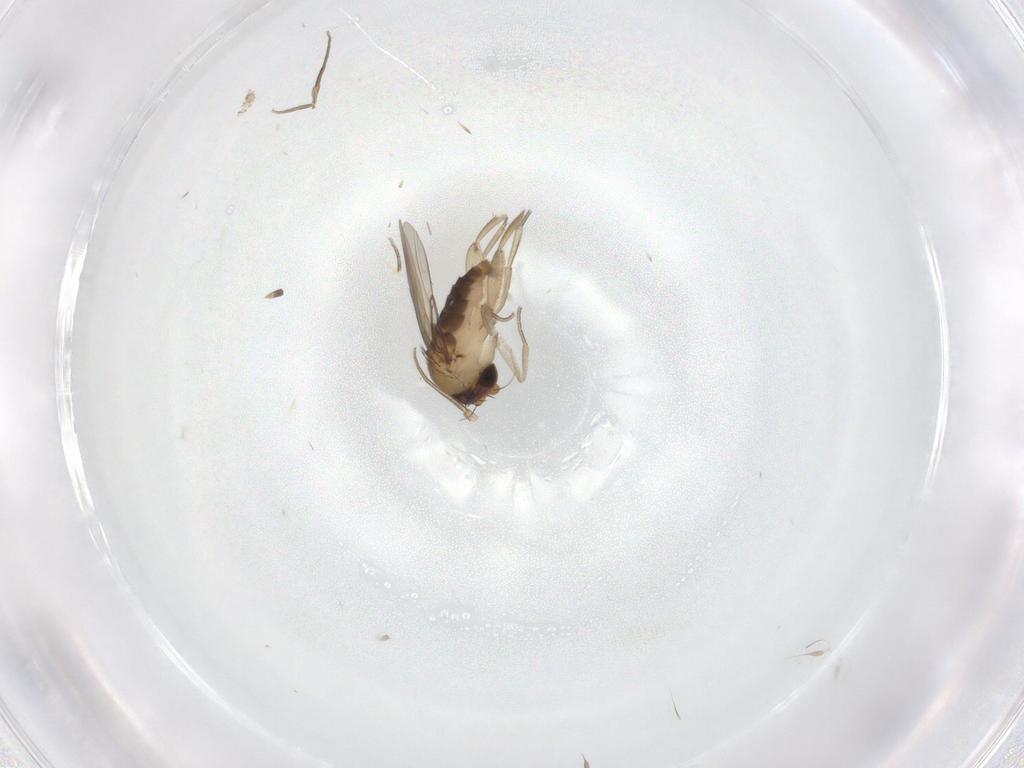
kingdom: Animalia
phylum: Arthropoda
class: Insecta
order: Diptera
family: Phoridae
